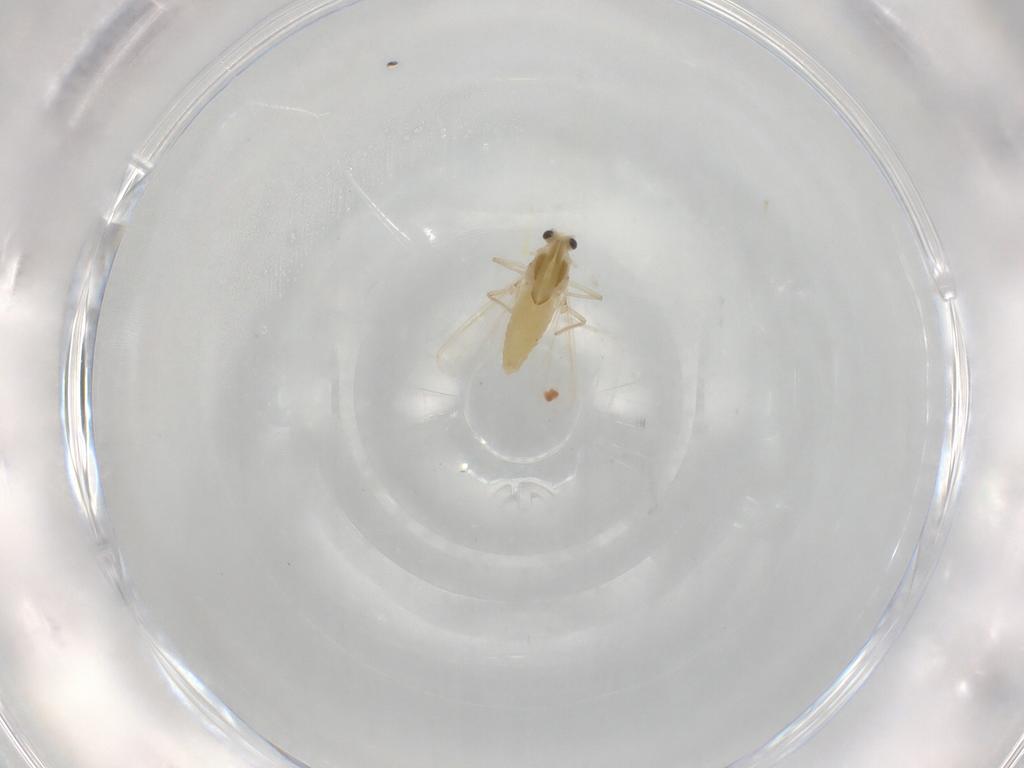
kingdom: Animalia
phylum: Arthropoda
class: Insecta
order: Diptera
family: Chironomidae
